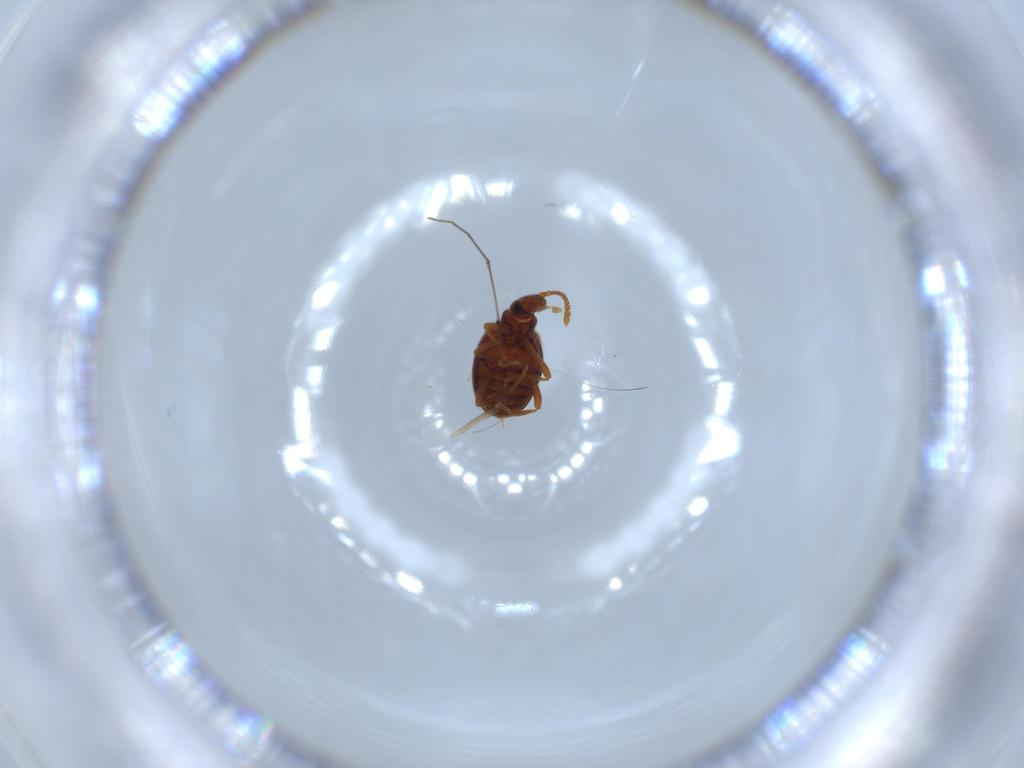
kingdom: Animalia
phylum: Arthropoda
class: Insecta
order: Coleoptera
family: Aderidae
